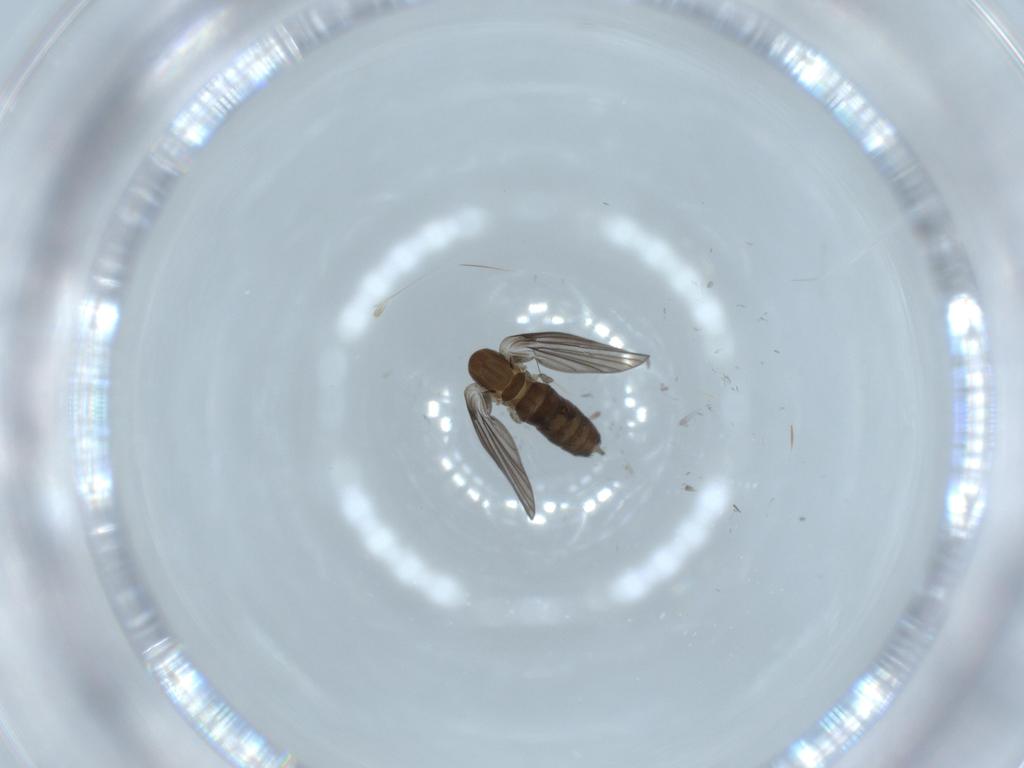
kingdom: Animalia
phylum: Arthropoda
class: Insecta
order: Diptera
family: Psychodidae
